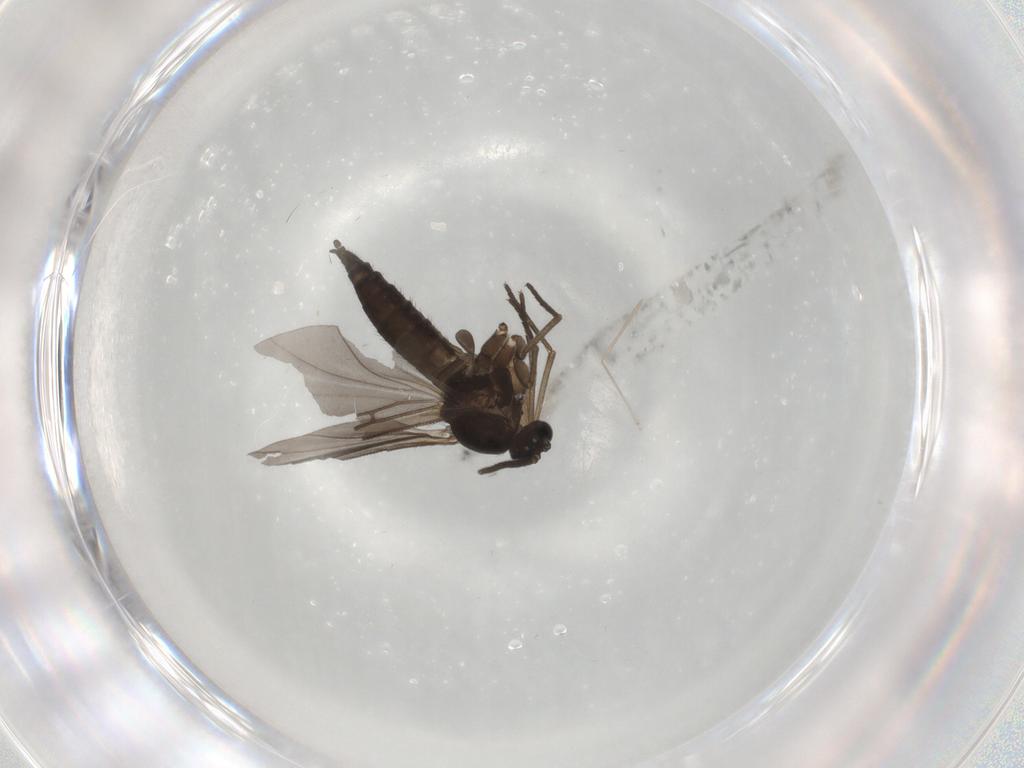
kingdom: Animalia
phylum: Arthropoda
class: Insecta
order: Diptera
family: Sciaridae
